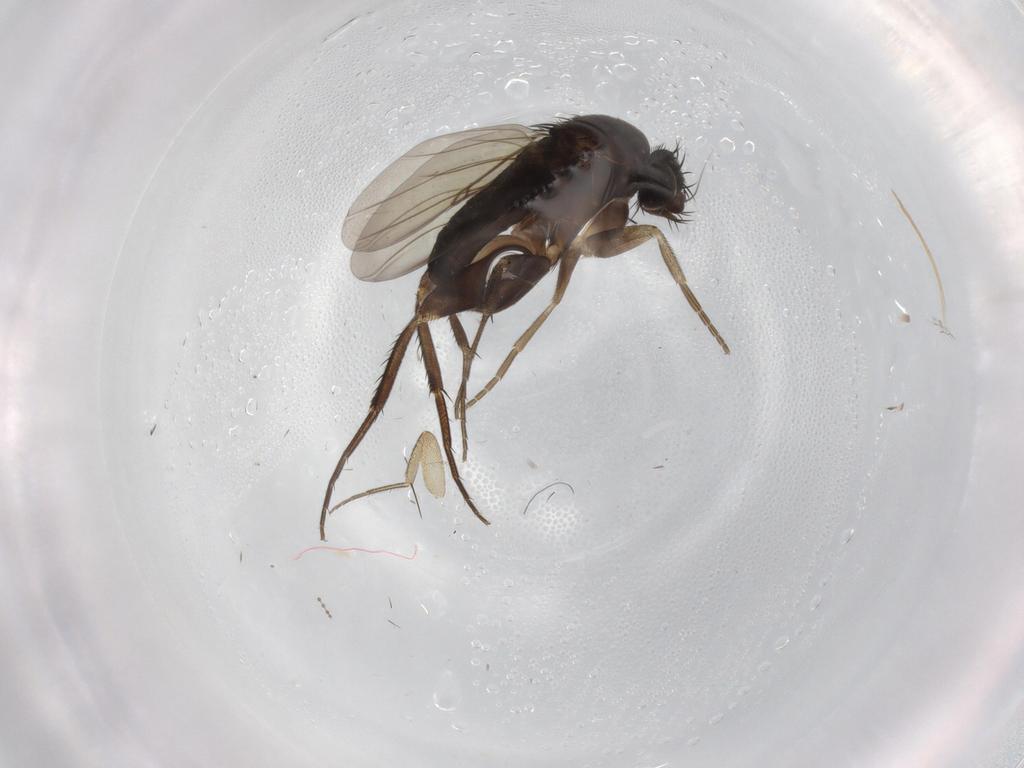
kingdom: Animalia
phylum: Arthropoda
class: Insecta
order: Diptera
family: Phoridae
